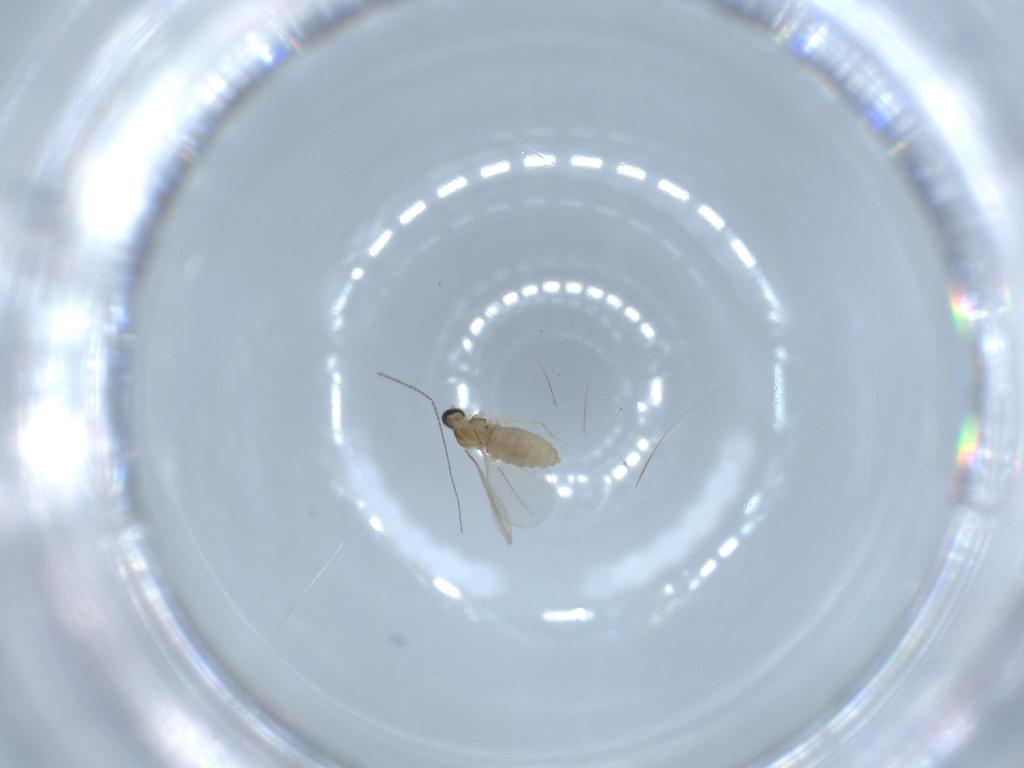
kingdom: Animalia
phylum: Arthropoda
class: Insecta
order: Diptera
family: Cecidomyiidae
